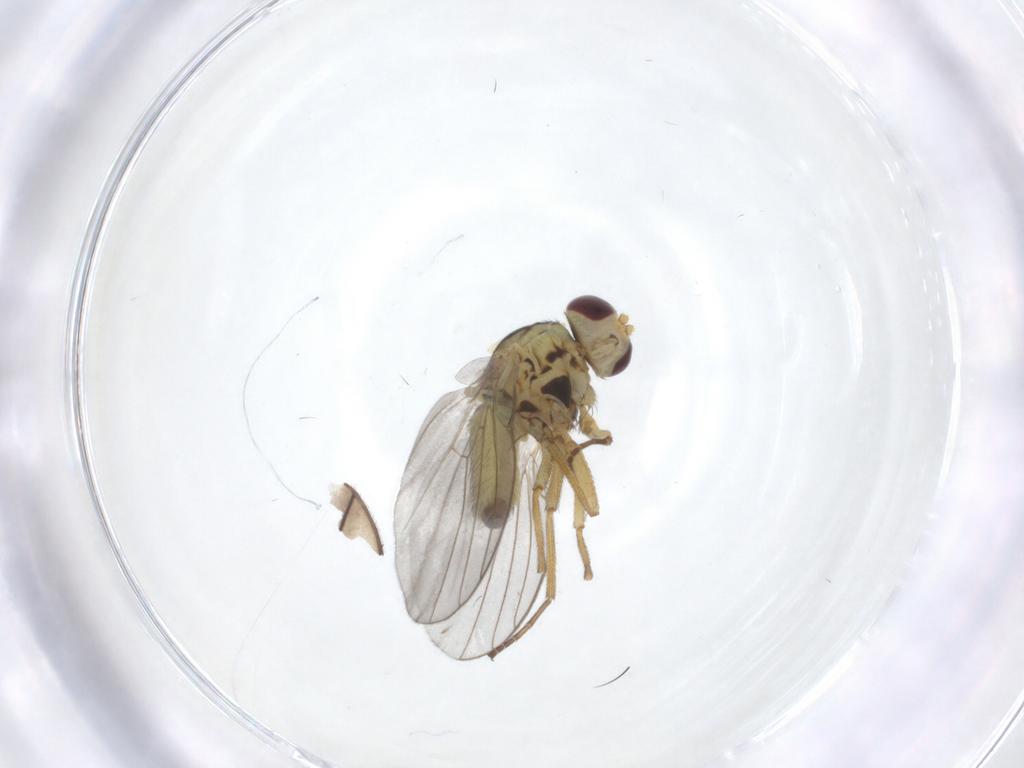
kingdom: Animalia
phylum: Arthropoda
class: Insecta
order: Diptera
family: Agromyzidae
